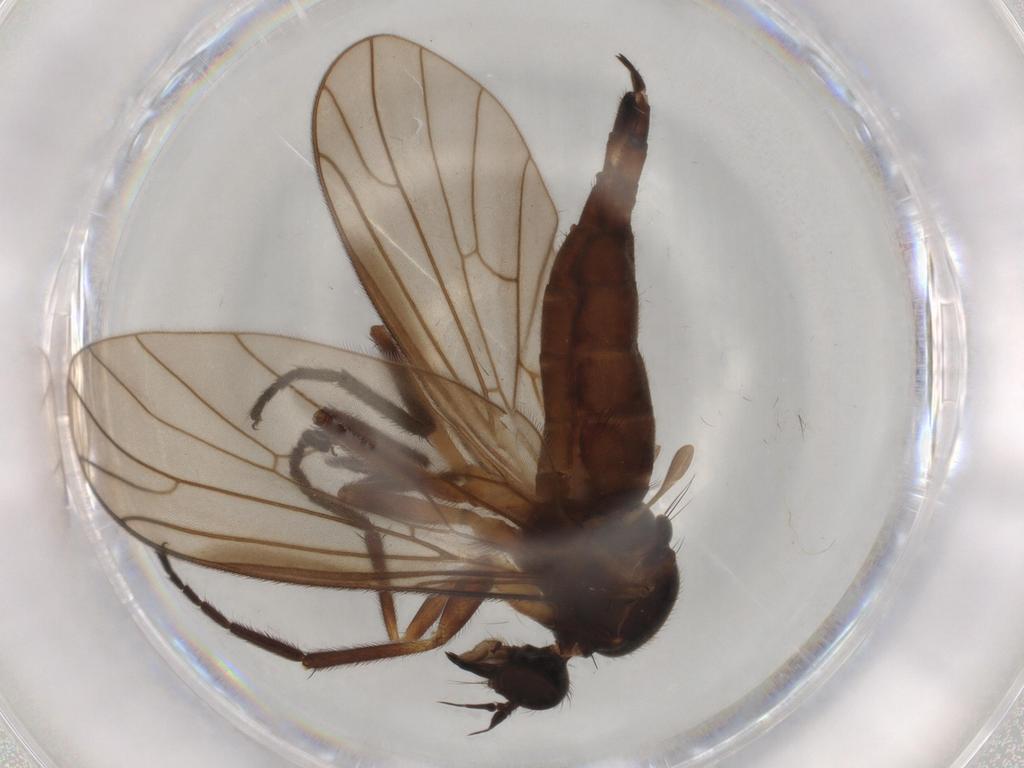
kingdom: Animalia
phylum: Arthropoda
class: Insecta
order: Diptera
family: Empididae
